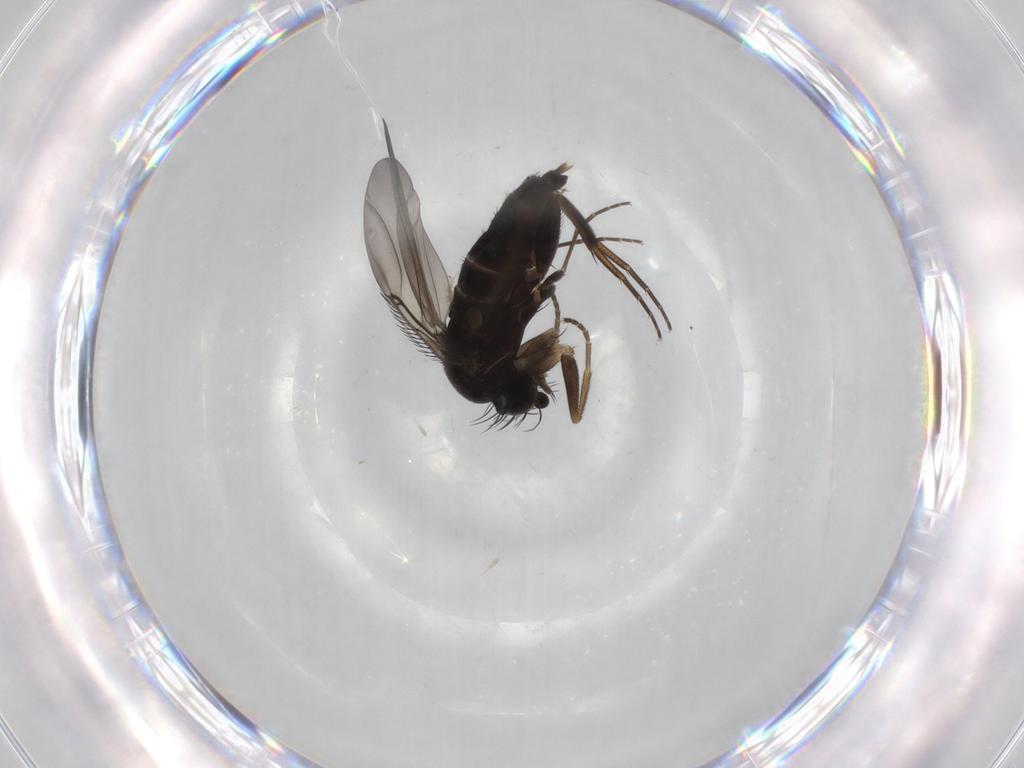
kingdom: Animalia
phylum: Arthropoda
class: Insecta
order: Diptera
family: Phoridae
